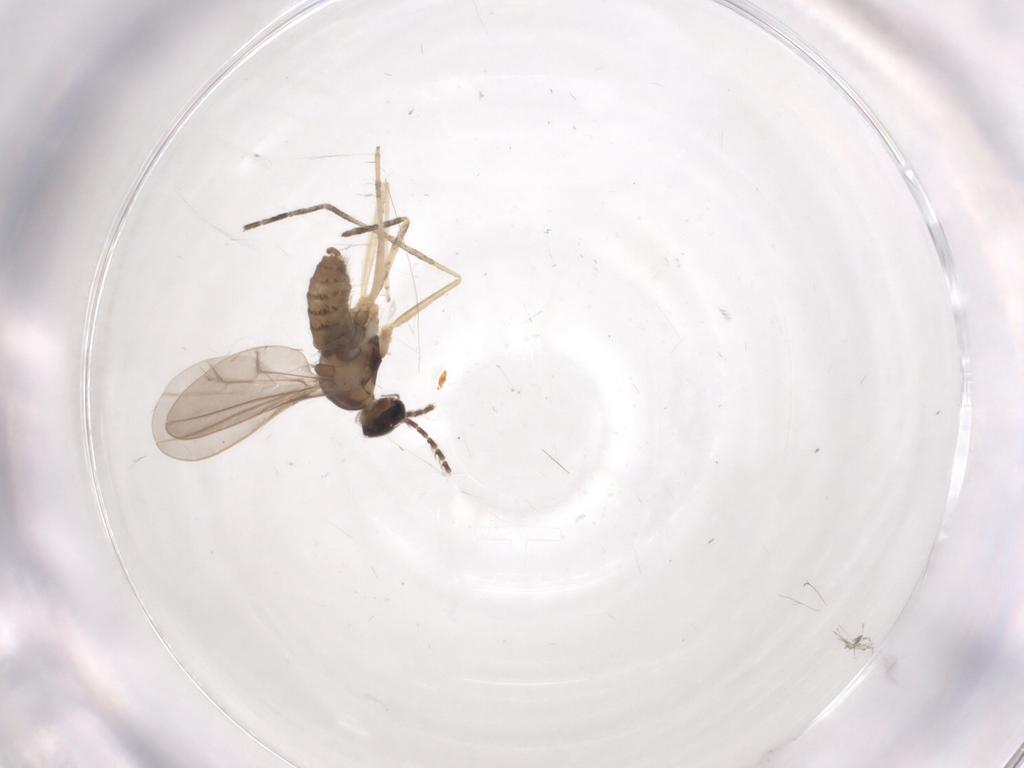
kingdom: Animalia
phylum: Arthropoda
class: Insecta
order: Diptera
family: Cecidomyiidae
